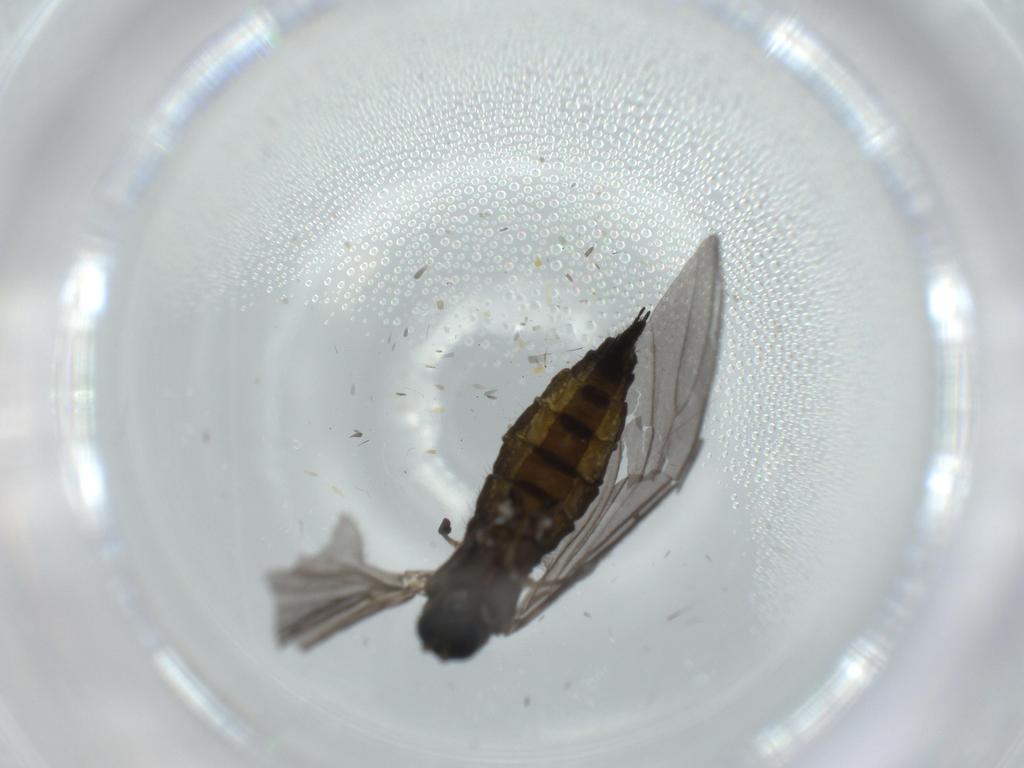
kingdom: Animalia
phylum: Arthropoda
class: Insecta
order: Diptera
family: Sciaridae
